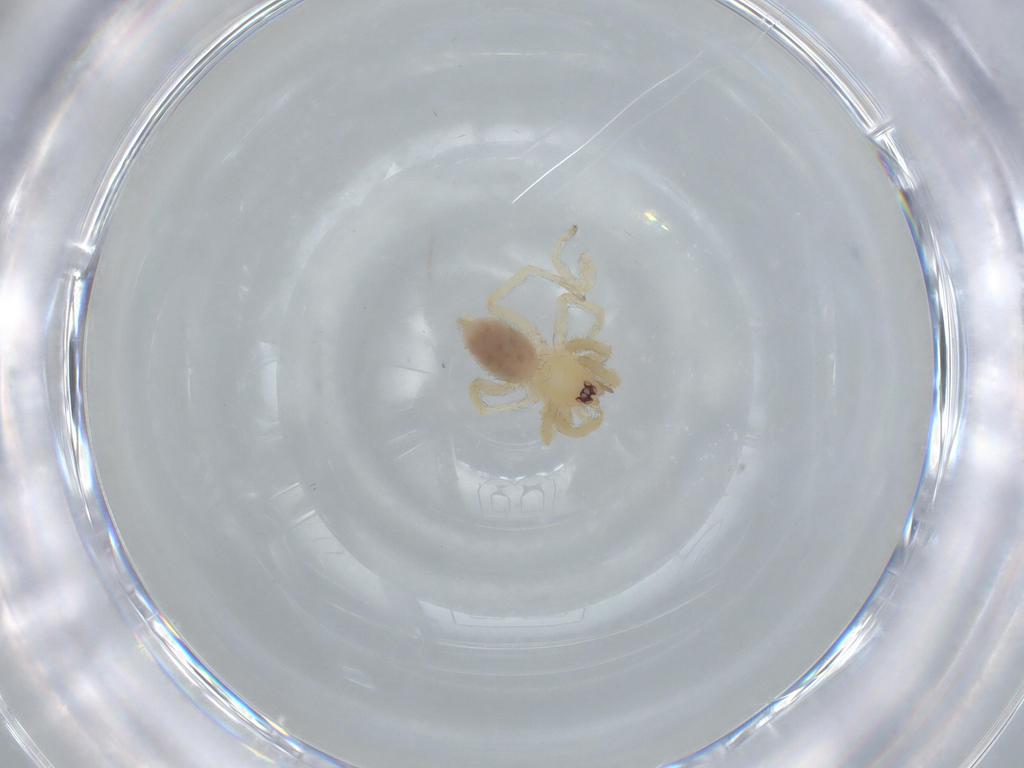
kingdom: Animalia
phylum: Arthropoda
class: Arachnida
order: Araneae
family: Oonopidae
